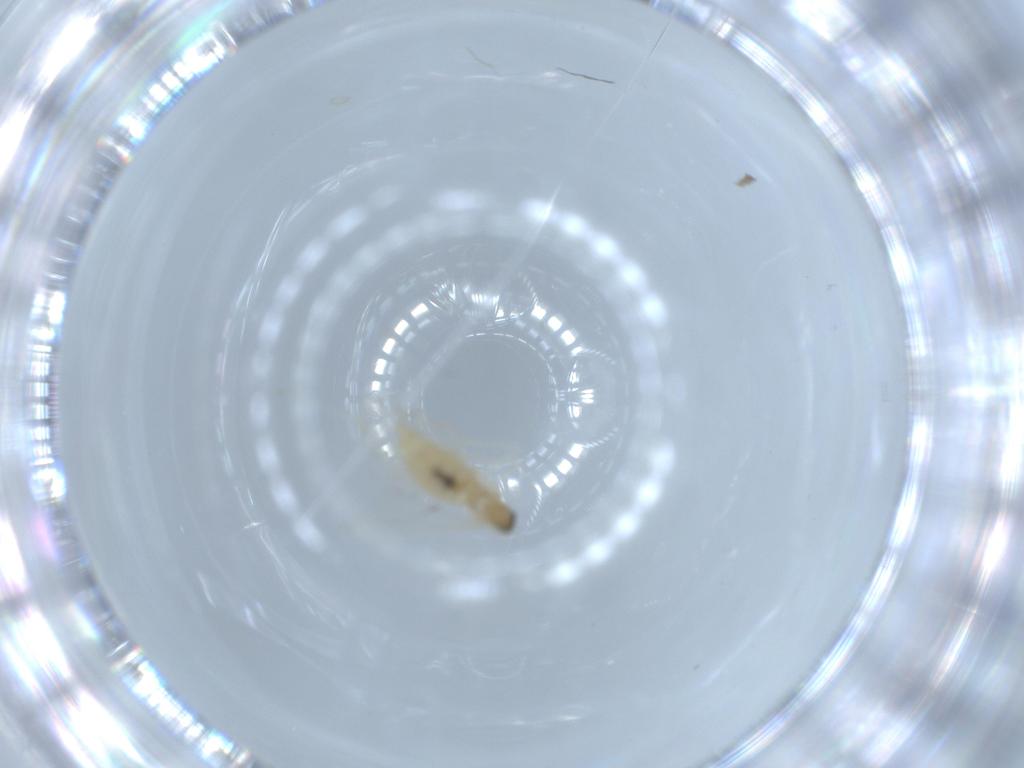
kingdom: Animalia
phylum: Arthropoda
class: Insecta
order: Diptera
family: Cecidomyiidae
